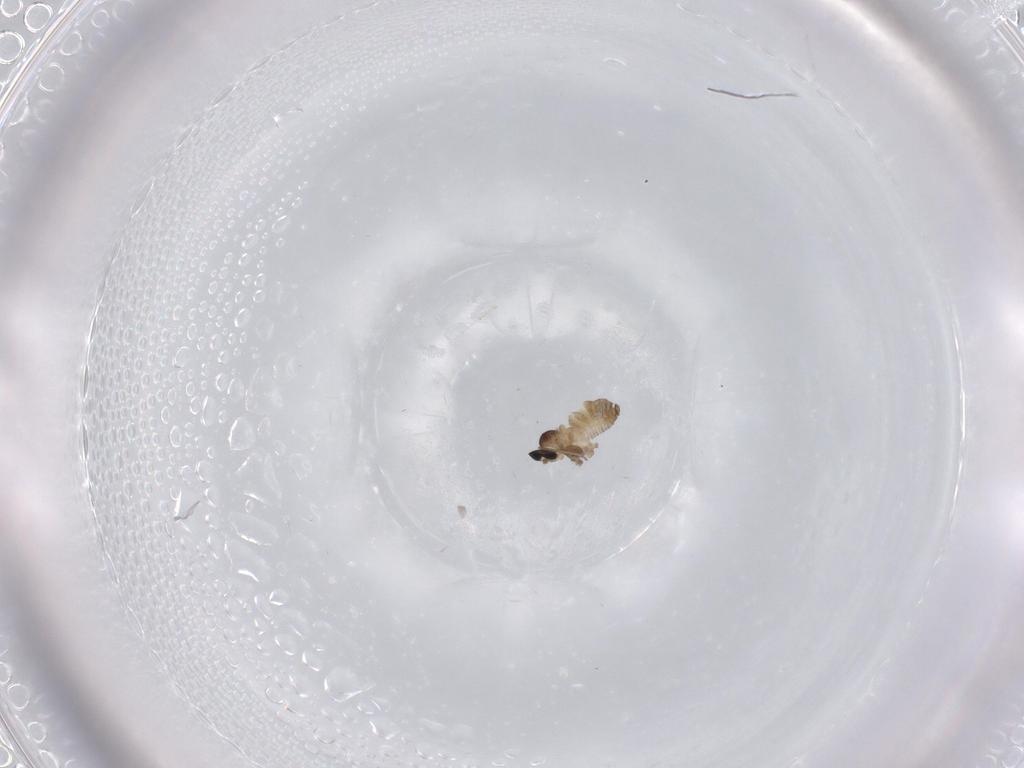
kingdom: Animalia
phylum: Arthropoda
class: Insecta
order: Diptera
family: Cecidomyiidae
